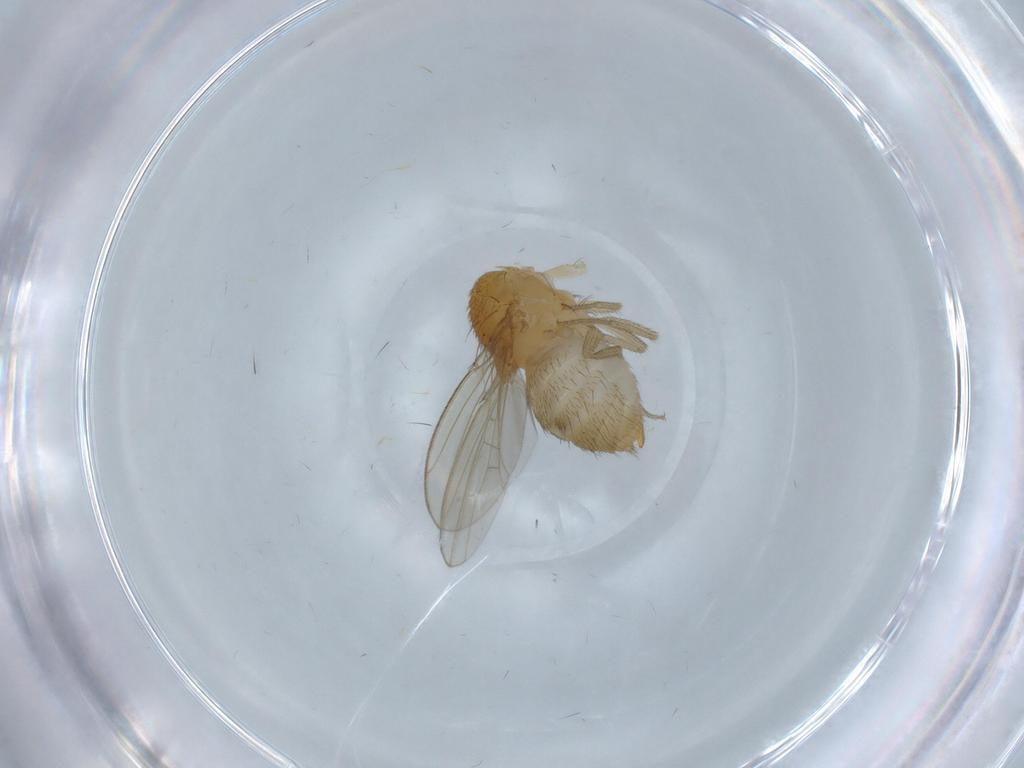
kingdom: Animalia
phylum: Arthropoda
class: Insecta
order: Diptera
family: Drosophilidae
